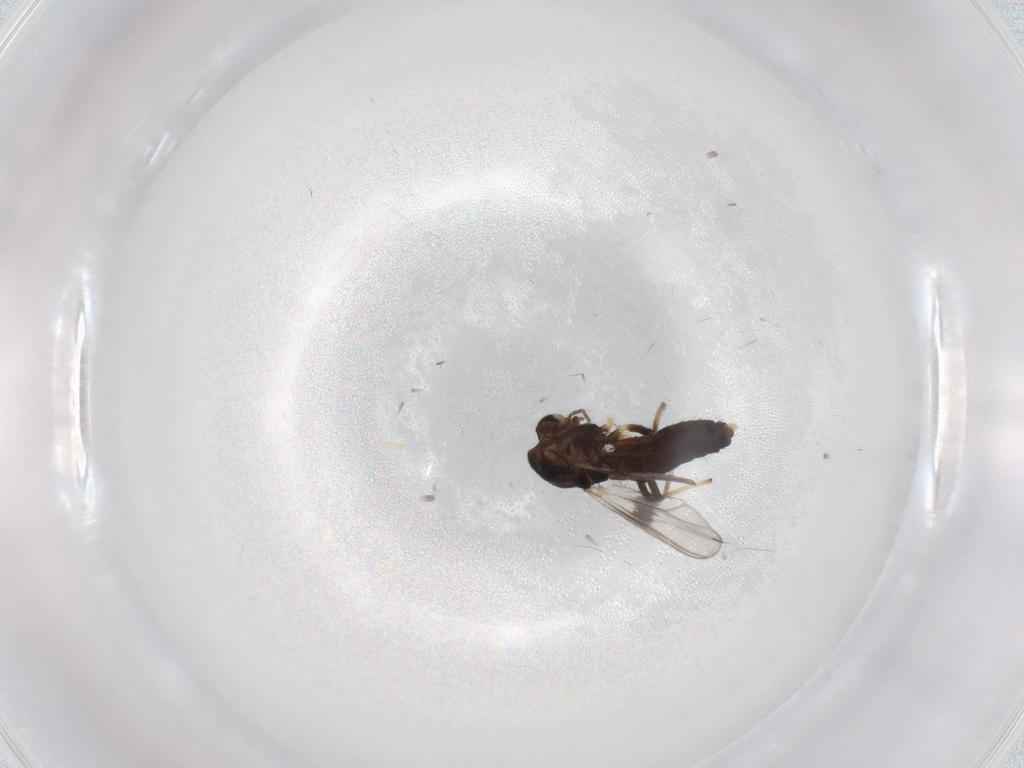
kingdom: Animalia
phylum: Arthropoda
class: Insecta
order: Diptera
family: Chironomidae
